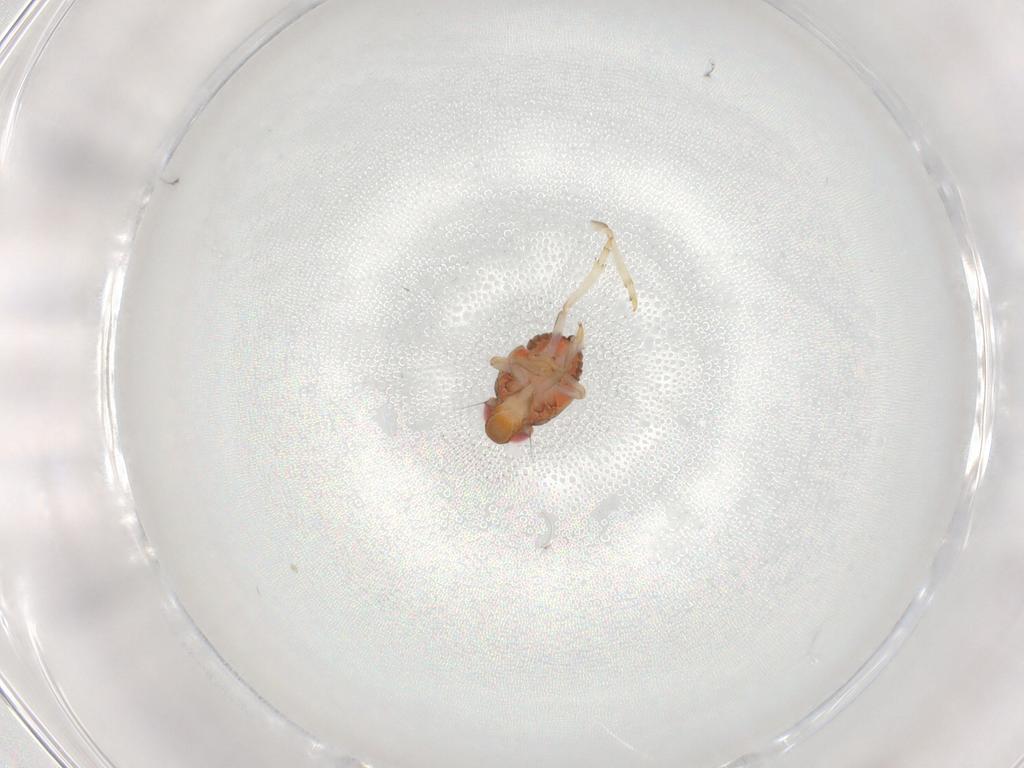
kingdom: Animalia
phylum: Arthropoda
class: Insecta
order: Hemiptera
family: Issidae
